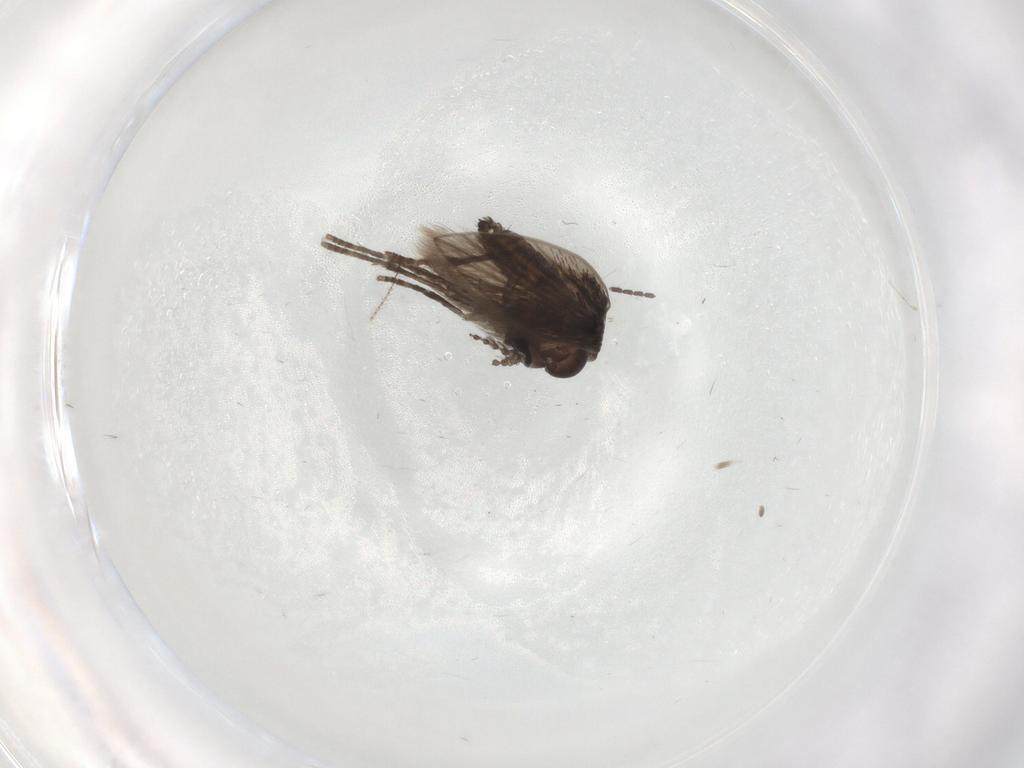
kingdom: Animalia
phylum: Arthropoda
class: Insecta
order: Diptera
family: Sciaridae
